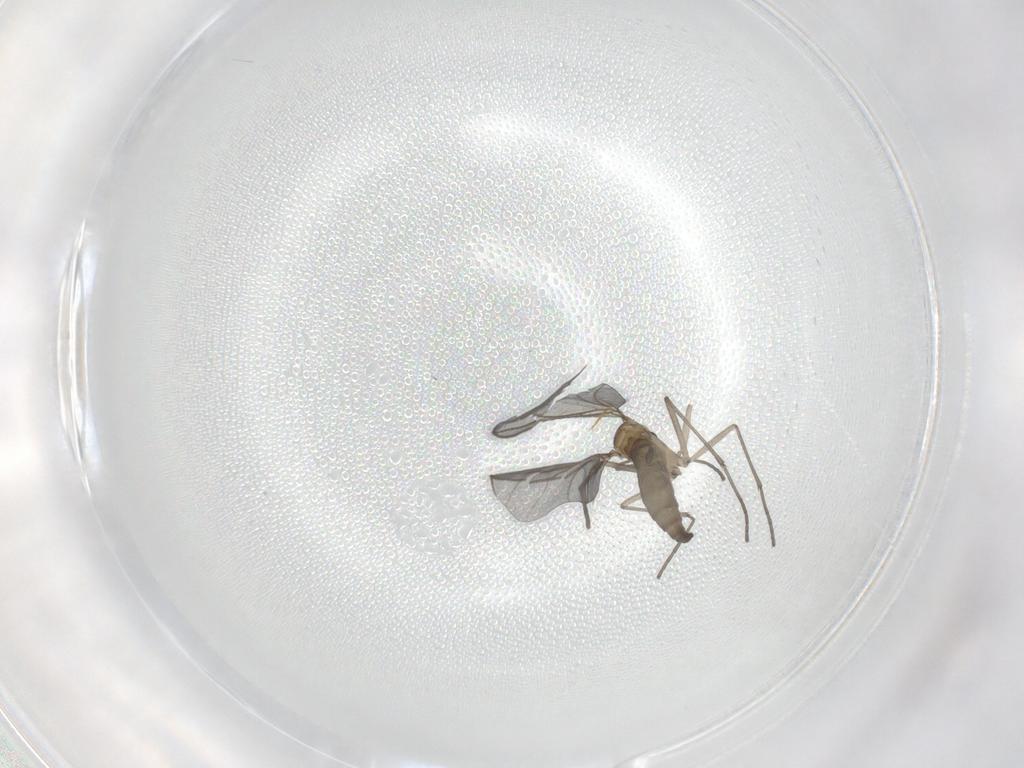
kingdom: Animalia
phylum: Arthropoda
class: Insecta
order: Diptera
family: Sciaridae
